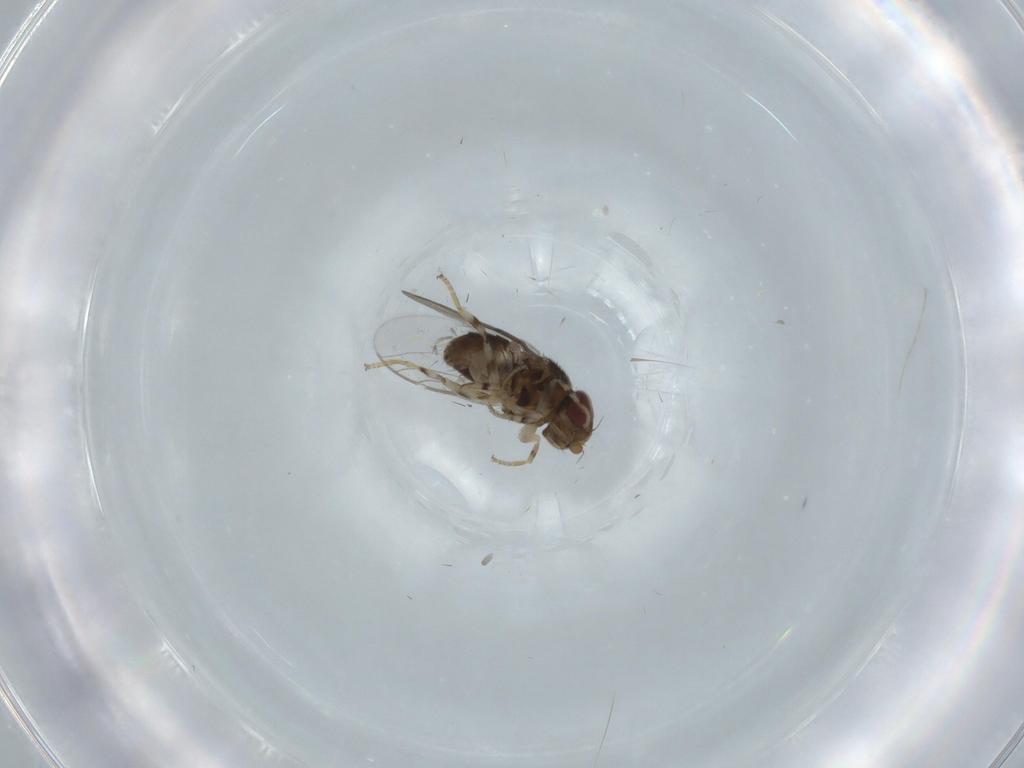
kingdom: Animalia
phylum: Arthropoda
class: Insecta
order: Diptera
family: Chloropidae
